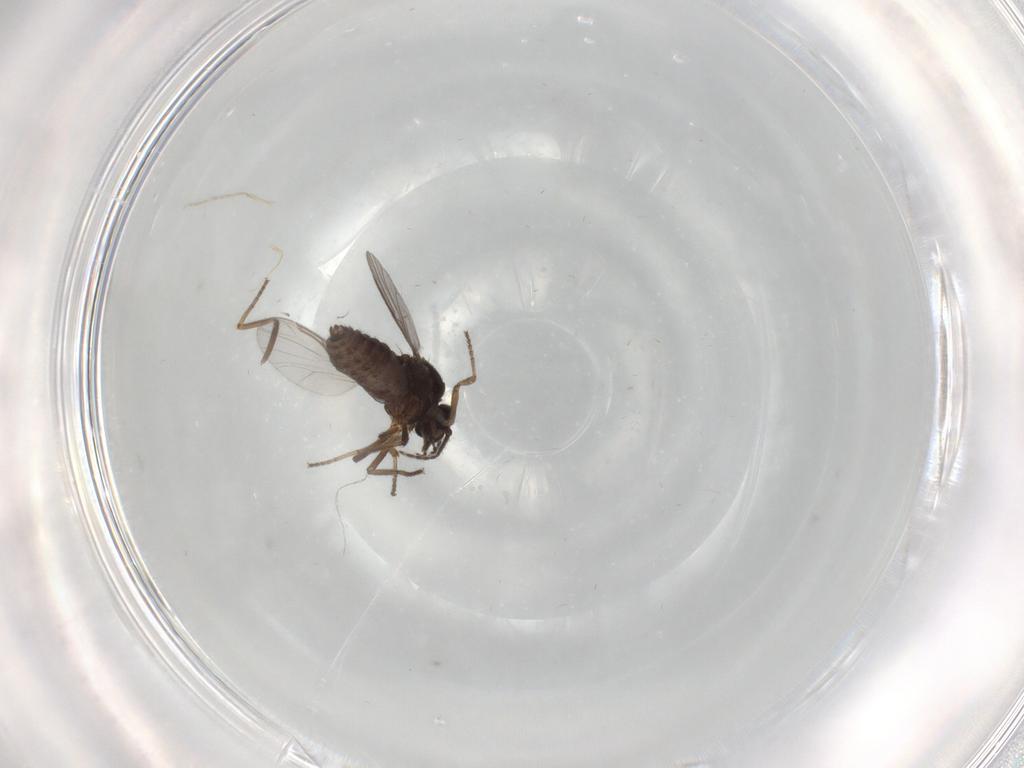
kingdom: Animalia
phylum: Arthropoda
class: Insecta
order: Diptera
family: Ceratopogonidae
